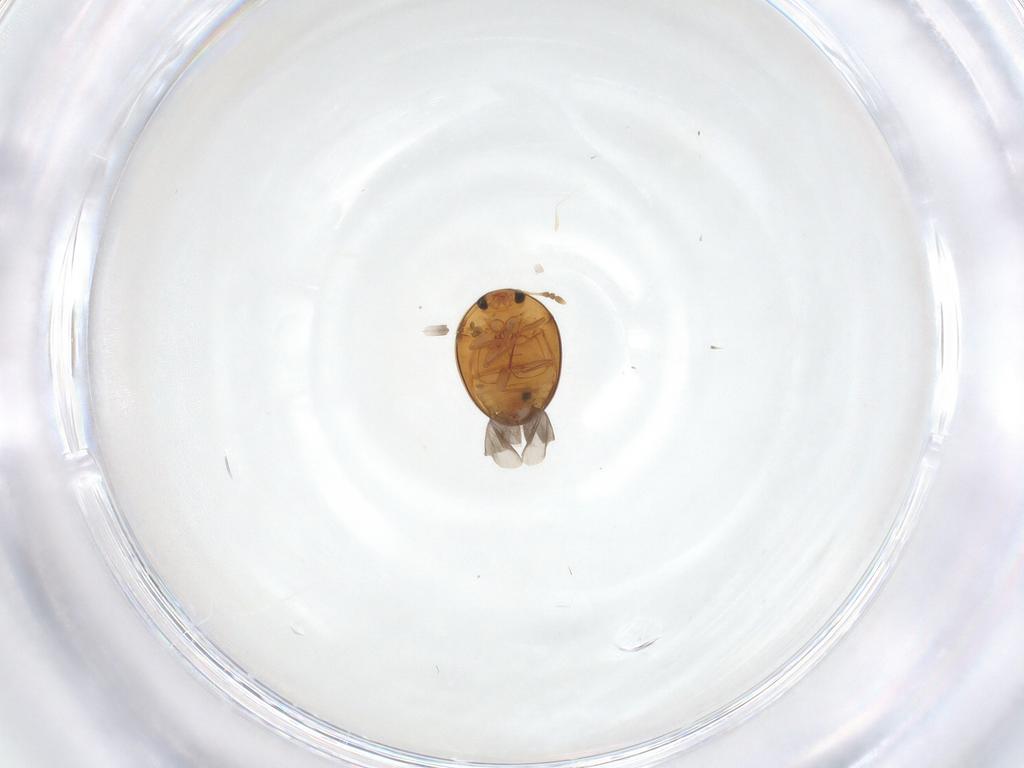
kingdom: Animalia
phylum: Arthropoda
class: Insecta
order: Coleoptera
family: Phalacridae
